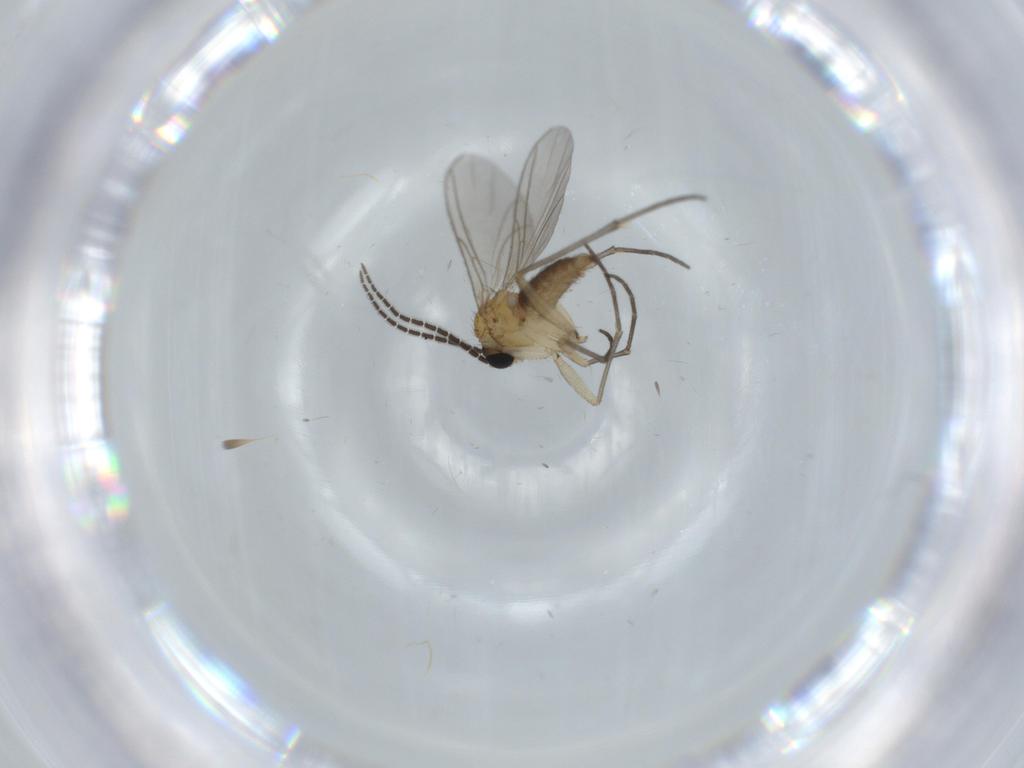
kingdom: Animalia
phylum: Arthropoda
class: Insecta
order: Diptera
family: Sciaridae
